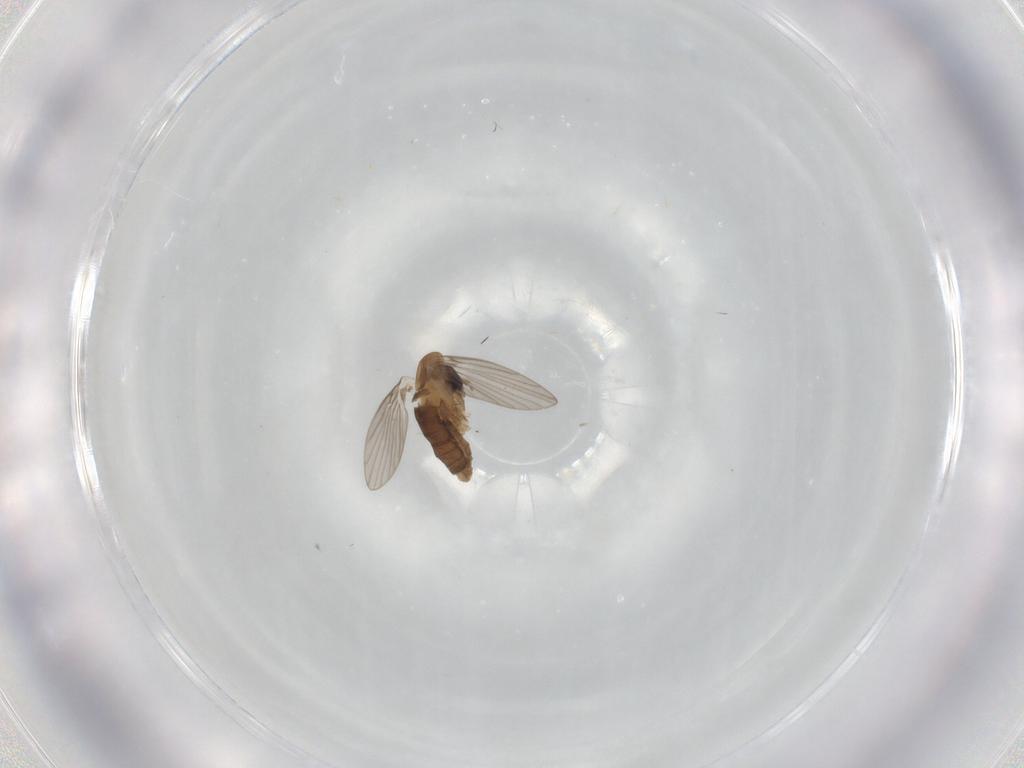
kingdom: Animalia
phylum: Arthropoda
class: Insecta
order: Diptera
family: Psychodidae
